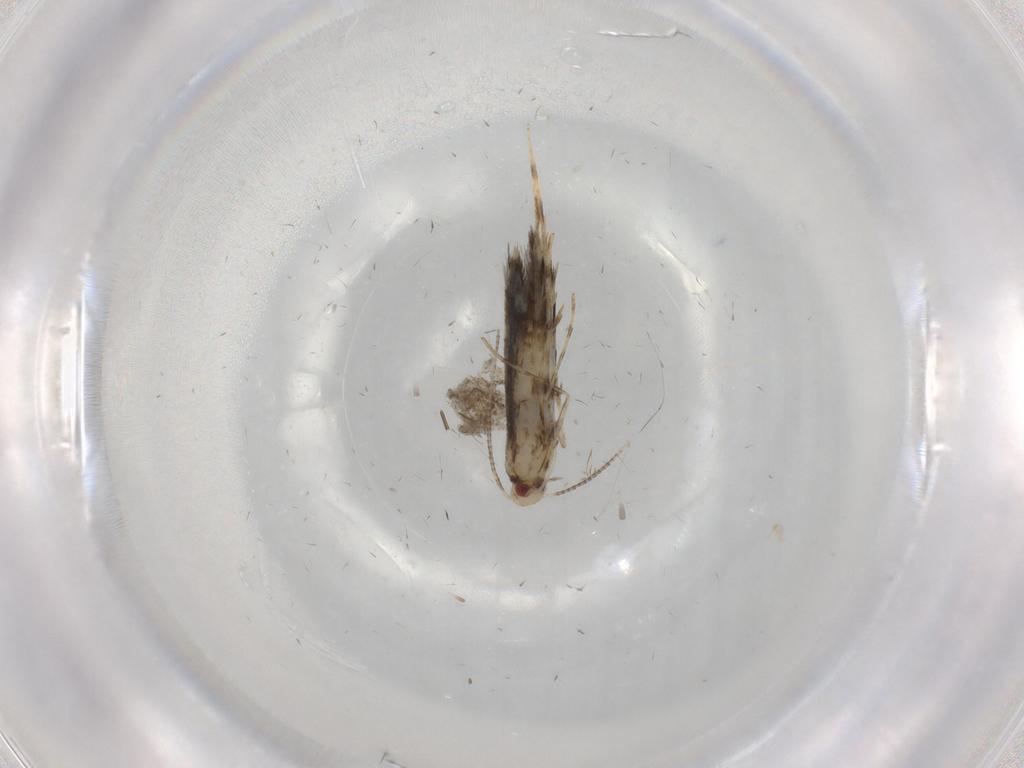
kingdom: Animalia
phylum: Arthropoda
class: Insecta
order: Lepidoptera
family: Gracillariidae
